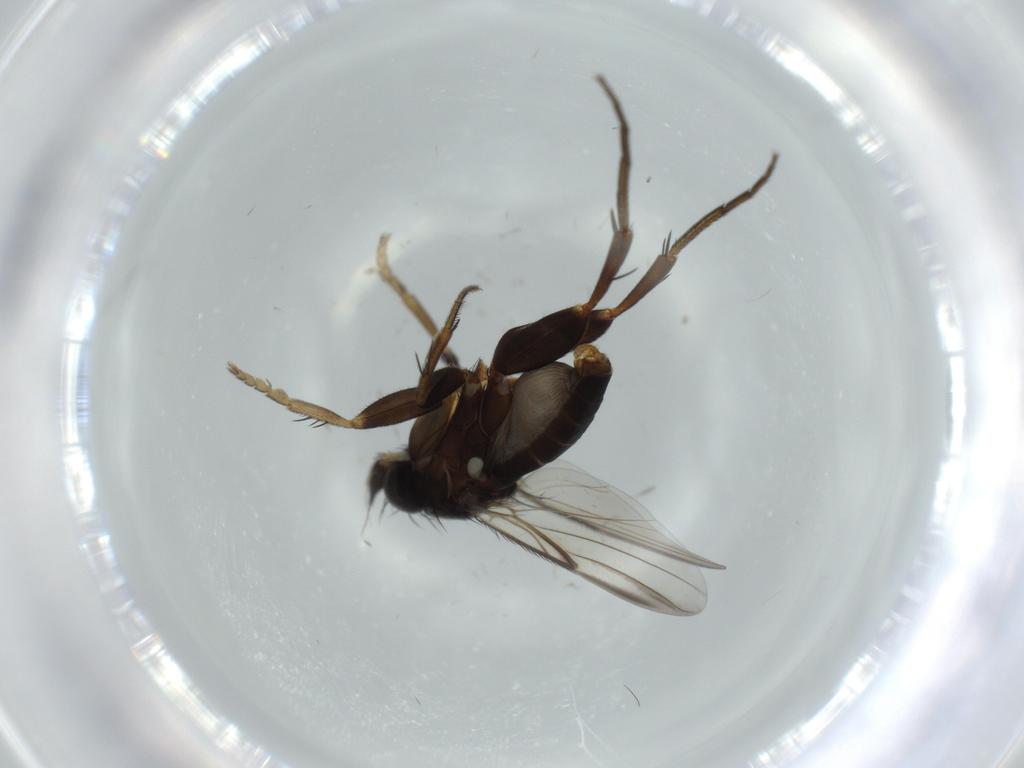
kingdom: Animalia
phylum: Arthropoda
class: Insecta
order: Diptera
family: Phoridae
